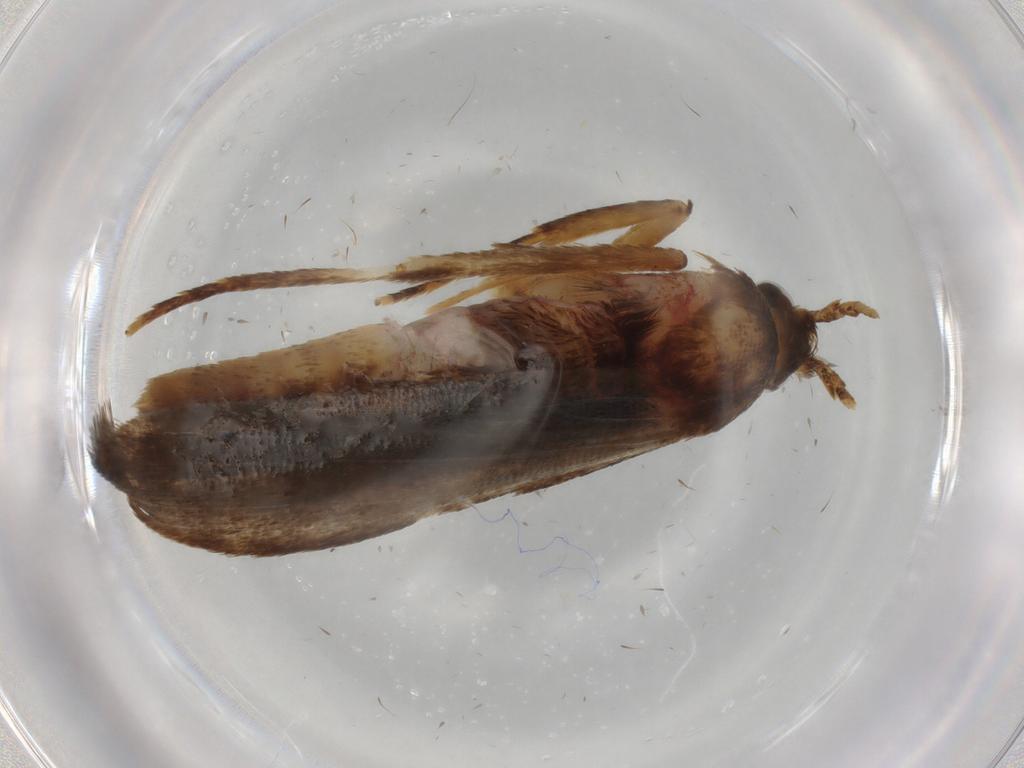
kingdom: Animalia
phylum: Arthropoda
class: Insecta
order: Lepidoptera
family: Autostichidae
